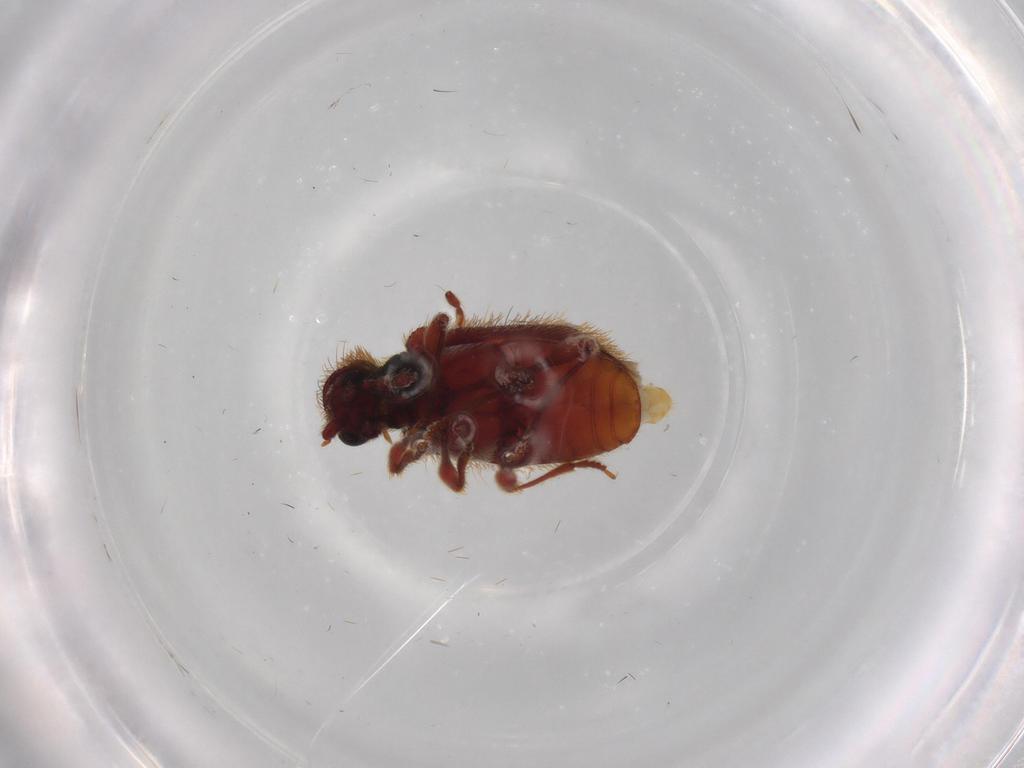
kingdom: Animalia
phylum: Arthropoda
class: Insecta
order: Coleoptera
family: Ptinidae
